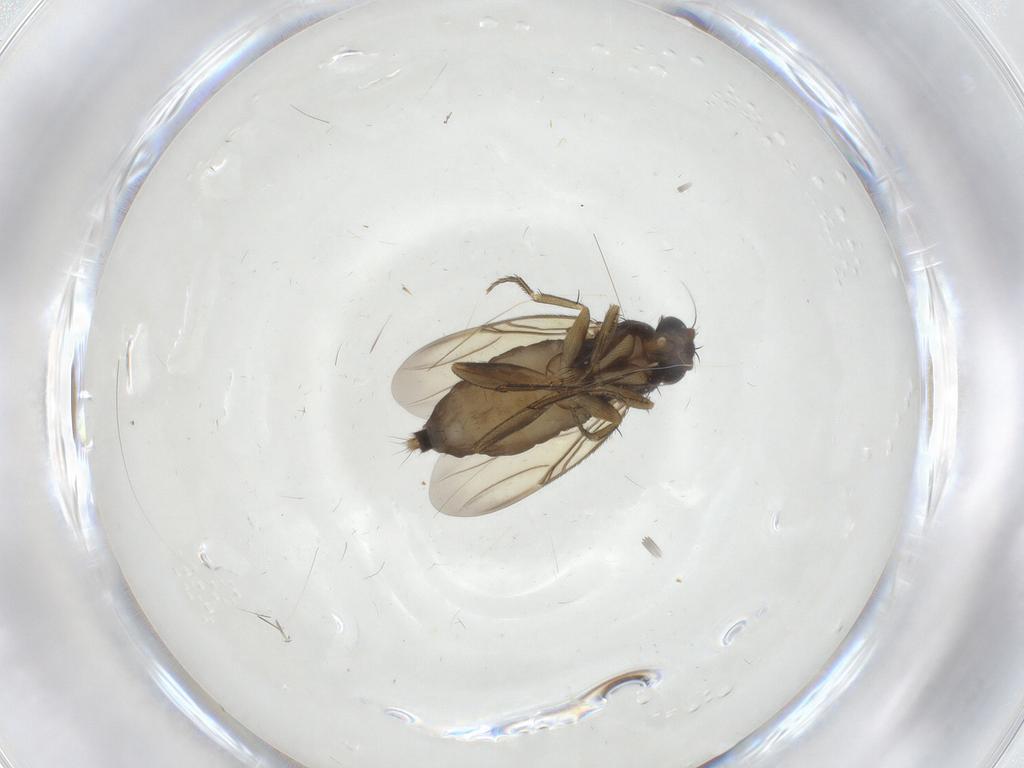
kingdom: Animalia
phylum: Arthropoda
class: Insecta
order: Diptera
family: Phoridae
